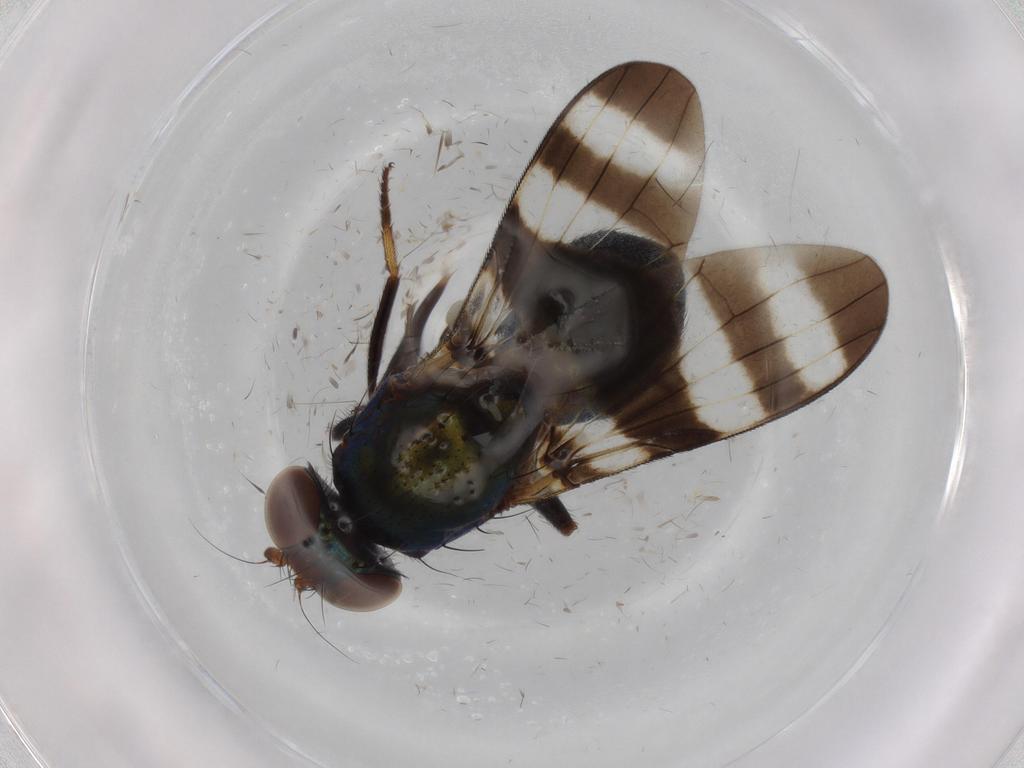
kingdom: Animalia
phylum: Arthropoda
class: Insecta
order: Diptera
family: Ulidiidae
